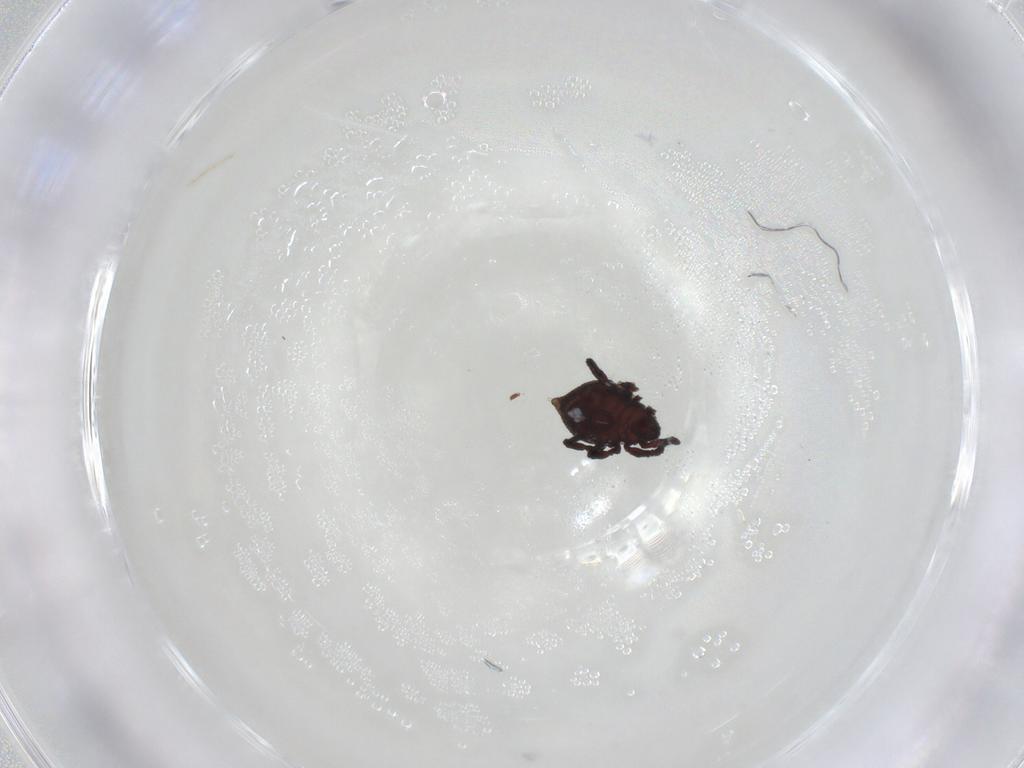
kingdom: Animalia
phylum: Arthropoda
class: Arachnida
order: Sarcoptiformes
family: Neoliodidae
